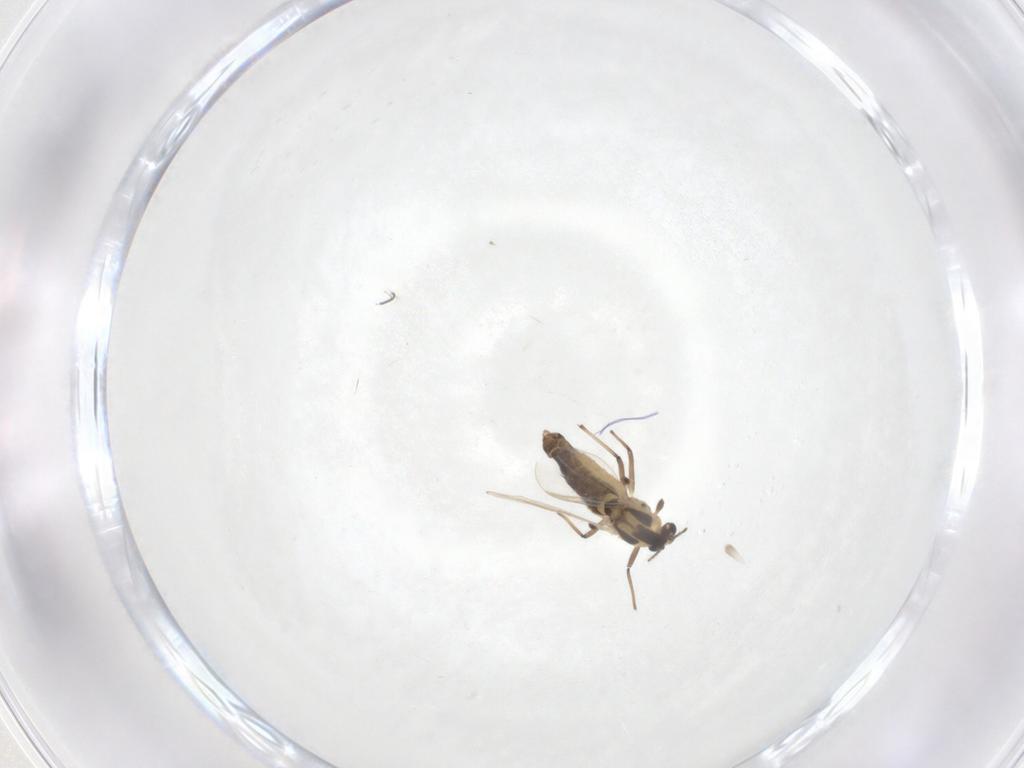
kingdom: Animalia
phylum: Arthropoda
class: Insecta
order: Diptera
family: Chironomidae
